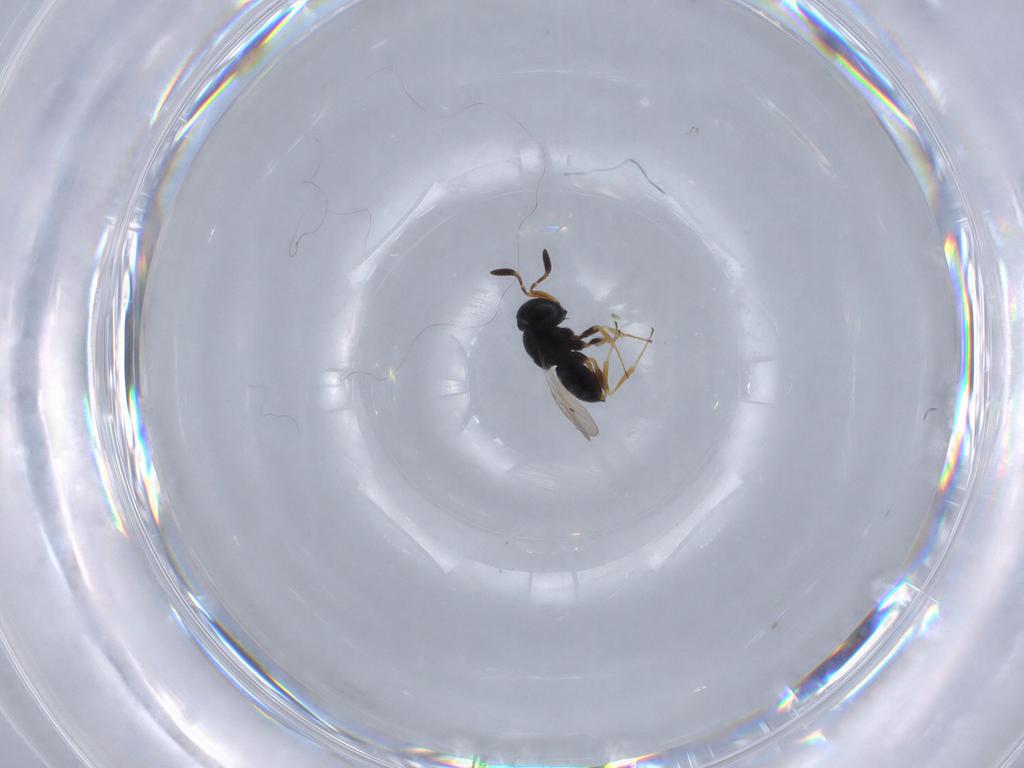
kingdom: Animalia
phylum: Arthropoda
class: Insecta
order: Hymenoptera
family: Scelionidae
